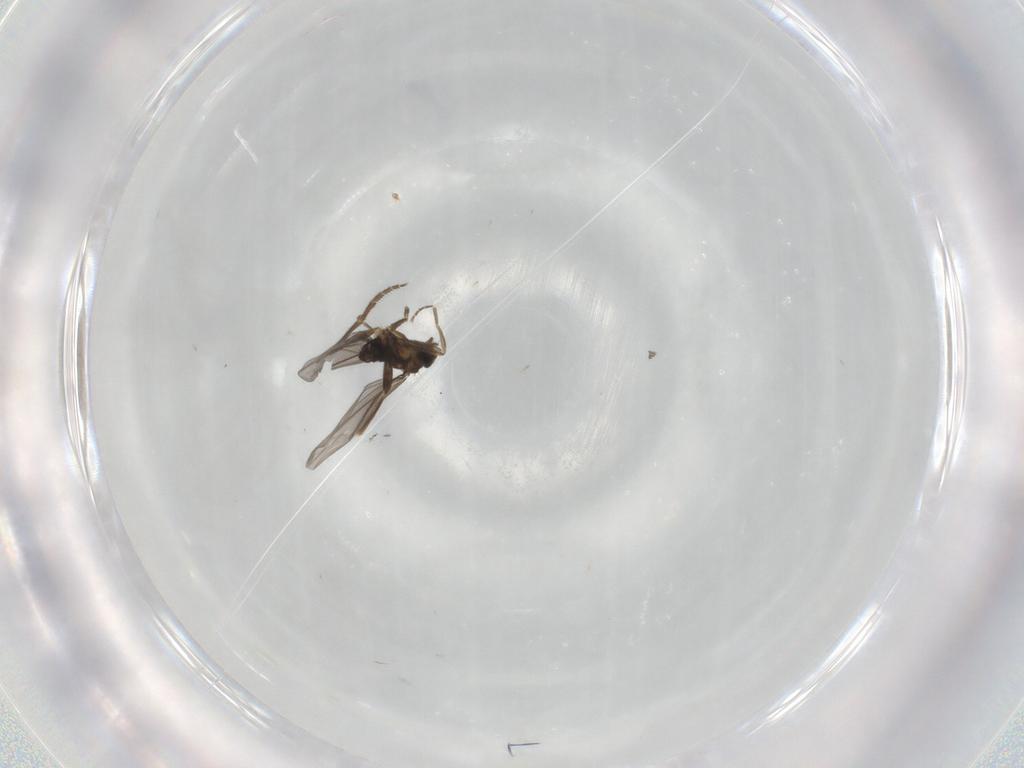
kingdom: Animalia
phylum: Arthropoda
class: Insecta
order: Diptera
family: Phoridae
